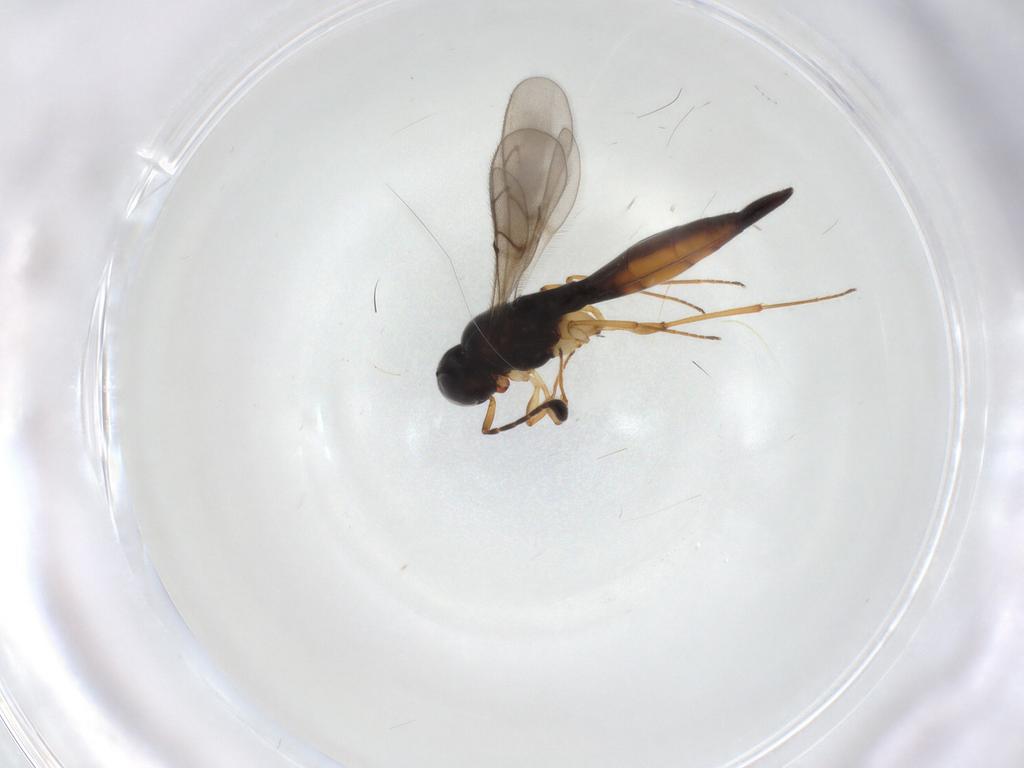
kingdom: Animalia
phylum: Arthropoda
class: Insecta
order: Hymenoptera
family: Scelionidae
